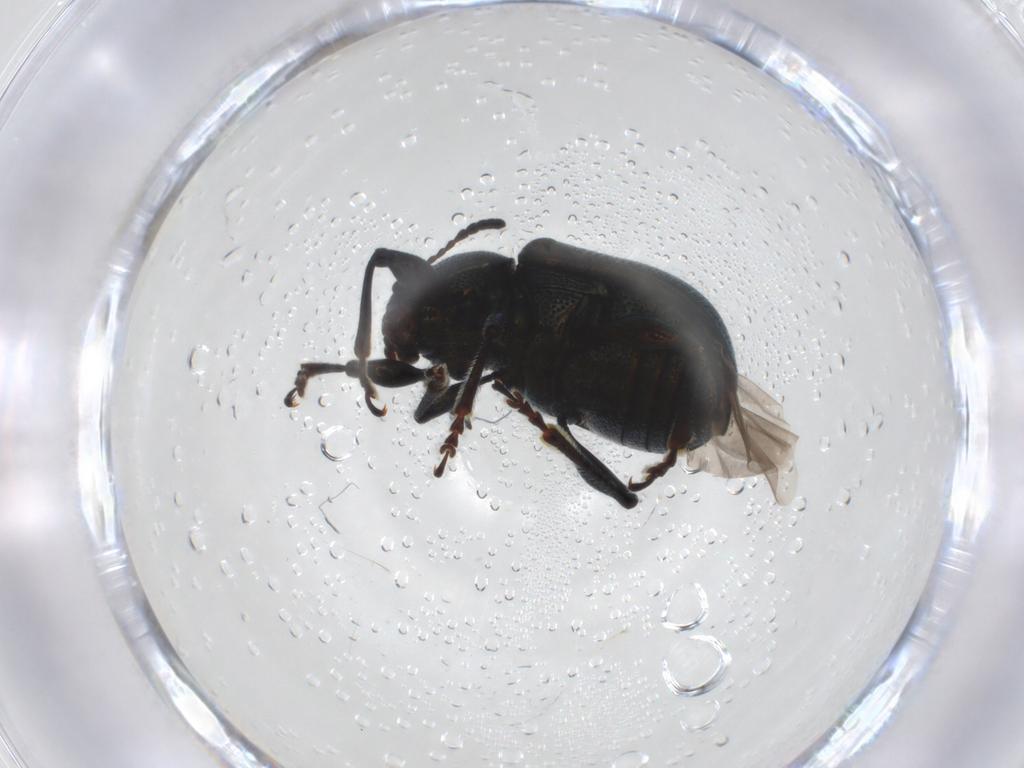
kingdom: Animalia
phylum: Arthropoda
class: Insecta
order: Coleoptera
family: Chrysomelidae
